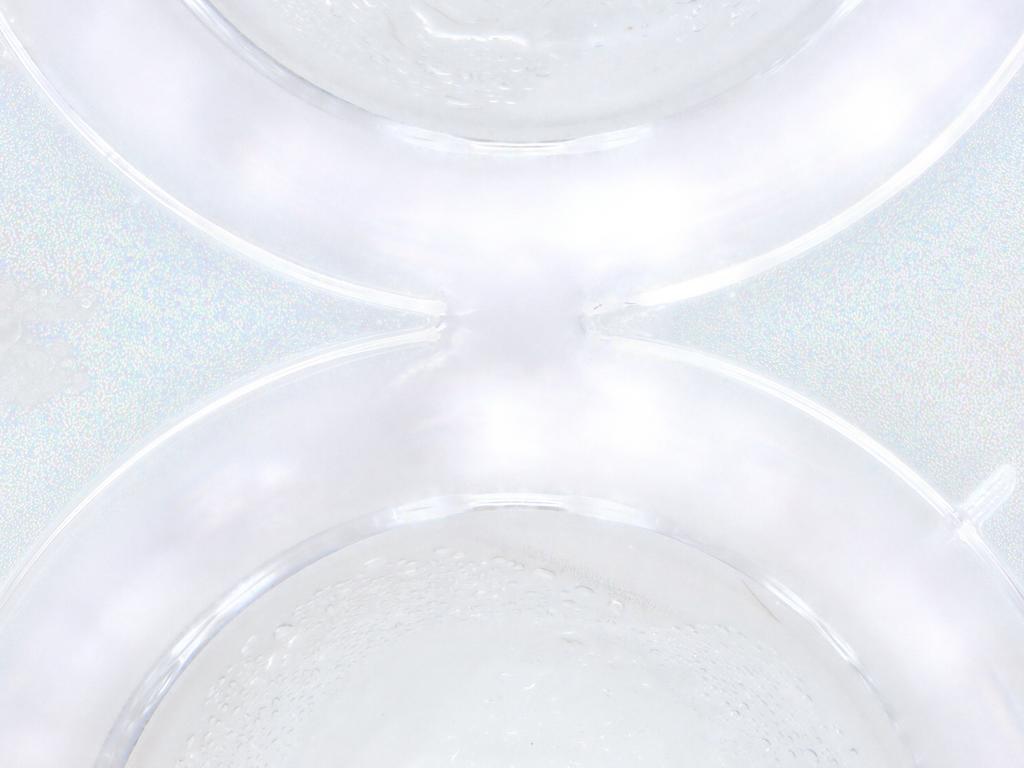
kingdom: Animalia
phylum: Arthropoda
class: Insecta
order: Diptera
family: Ceratopogonidae
